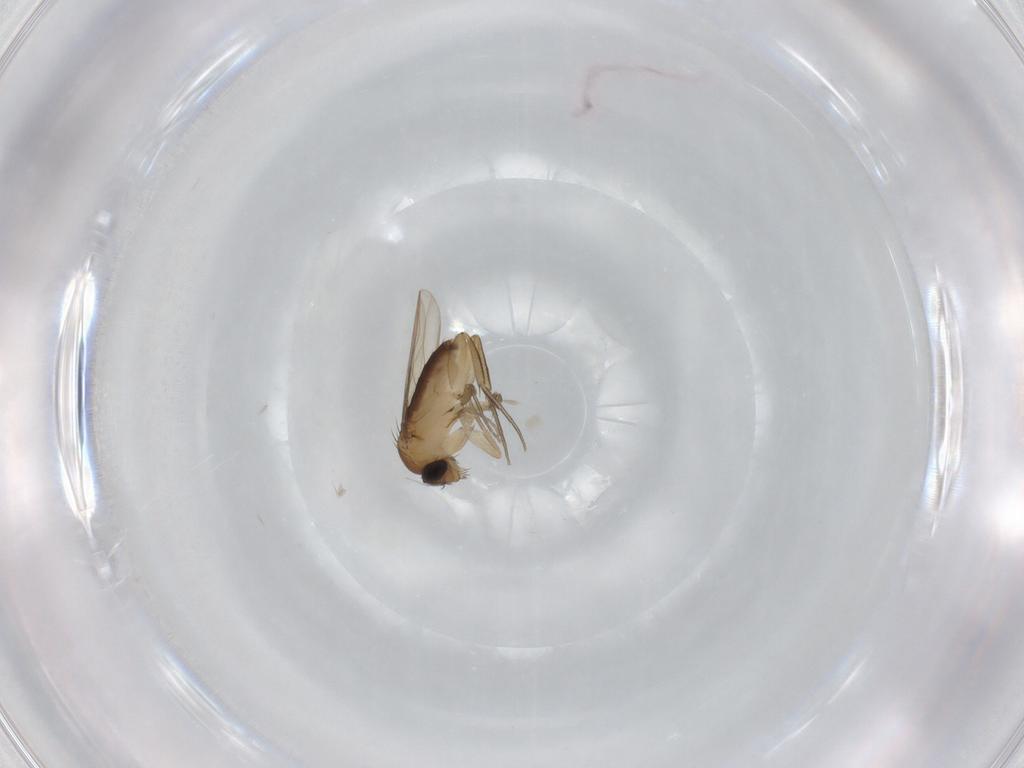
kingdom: Animalia
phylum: Arthropoda
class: Insecta
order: Diptera
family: Phoridae
